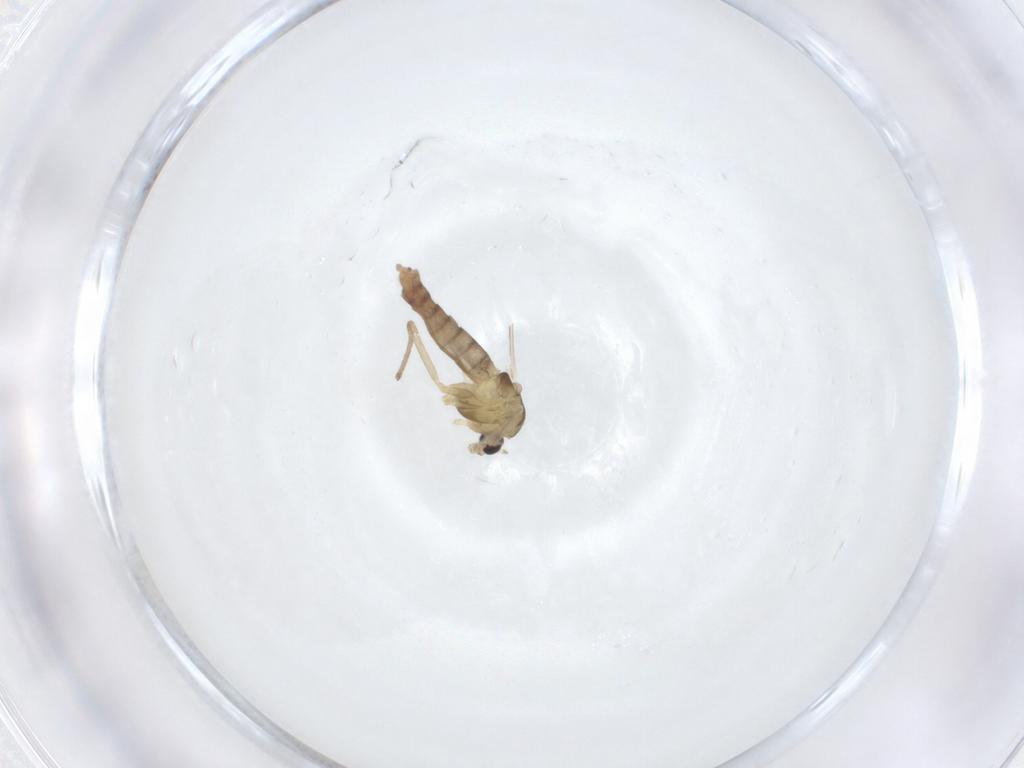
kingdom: Animalia
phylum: Arthropoda
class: Insecta
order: Diptera
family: Chironomidae
